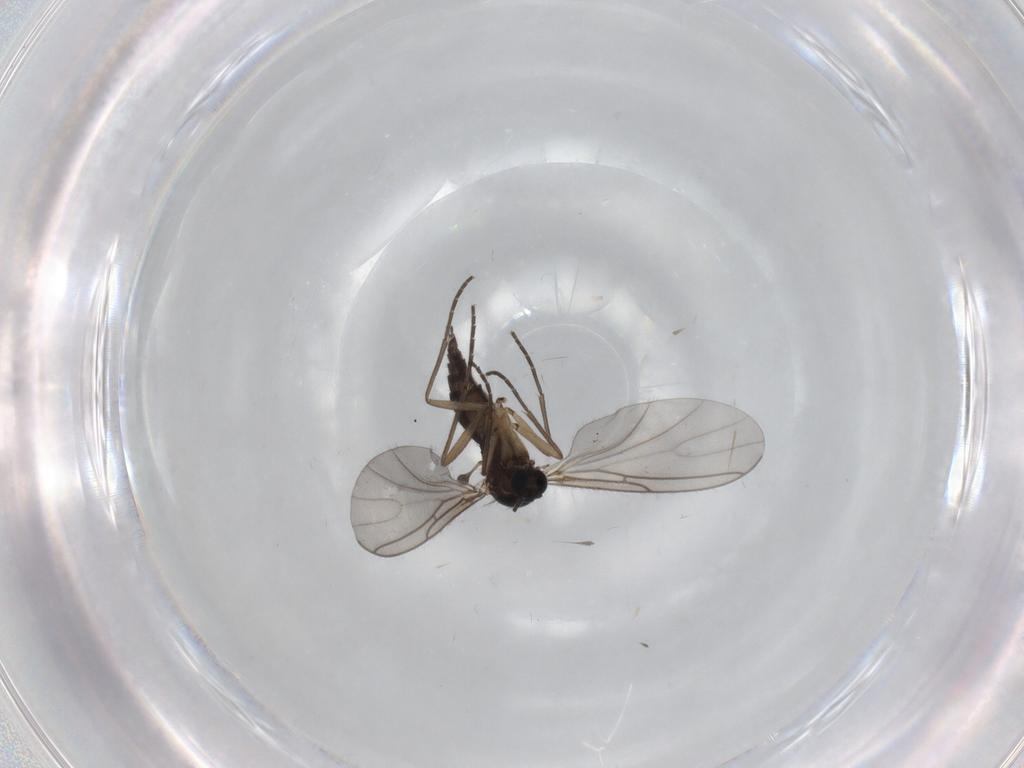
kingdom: Animalia
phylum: Arthropoda
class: Insecta
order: Diptera
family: Sciaridae
